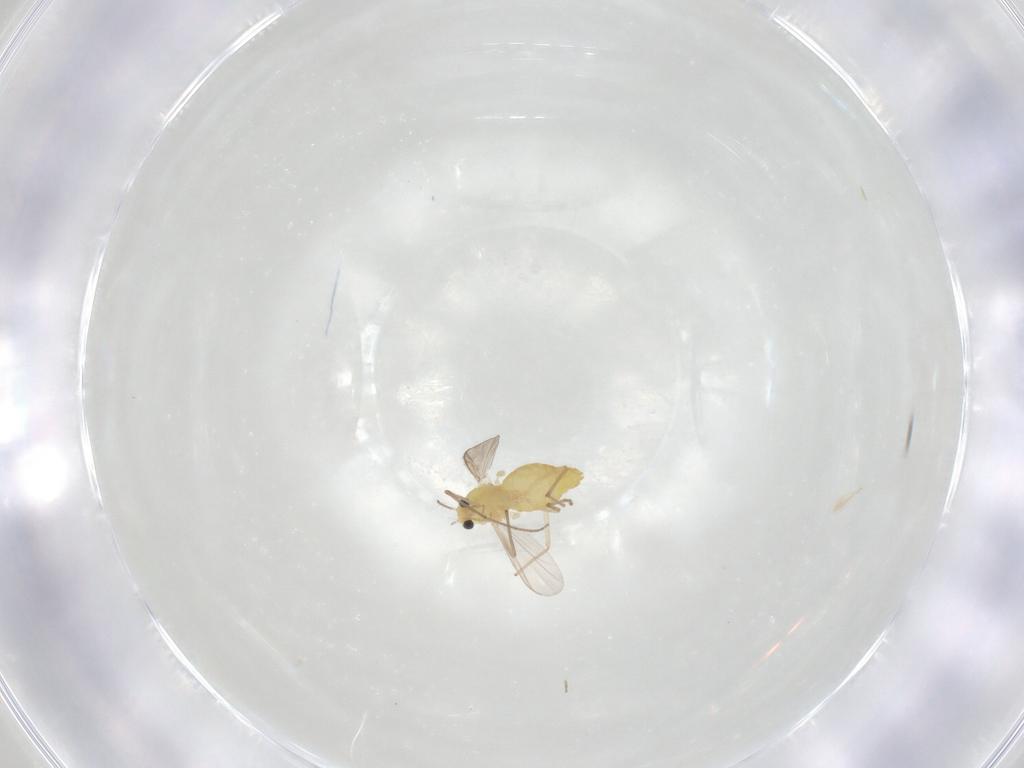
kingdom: Animalia
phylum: Arthropoda
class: Insecta
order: Diptera
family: Chironomidae
